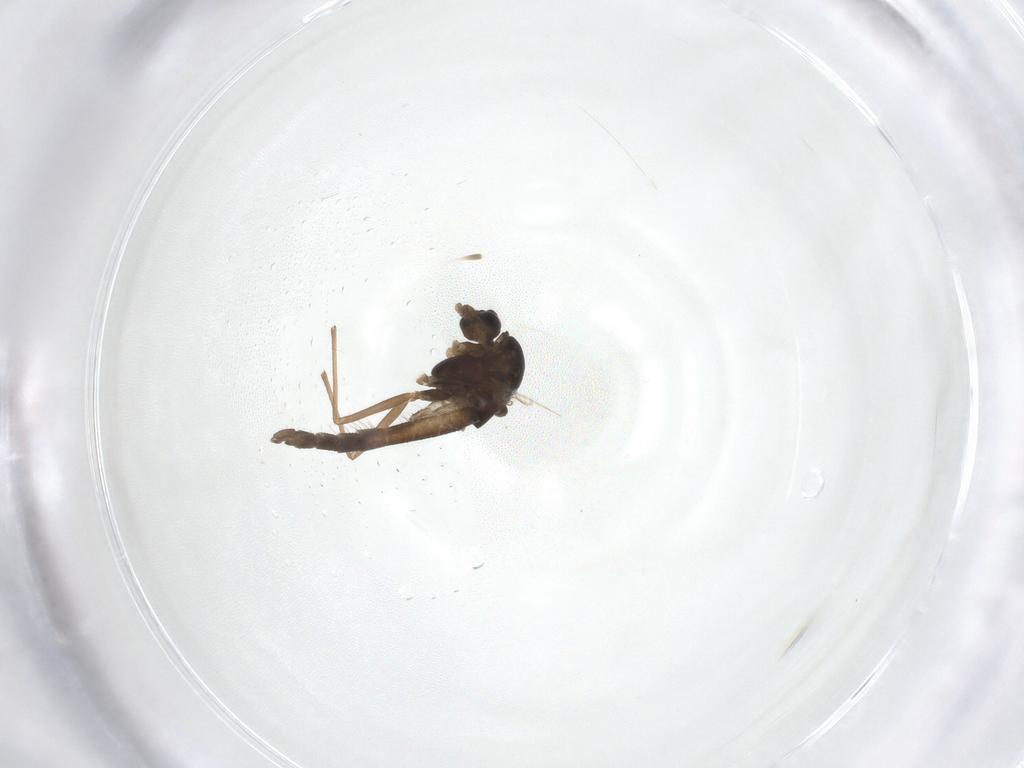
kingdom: Animalia
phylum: Arthropoda
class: Insecta
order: Diptera
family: Chironomidae
